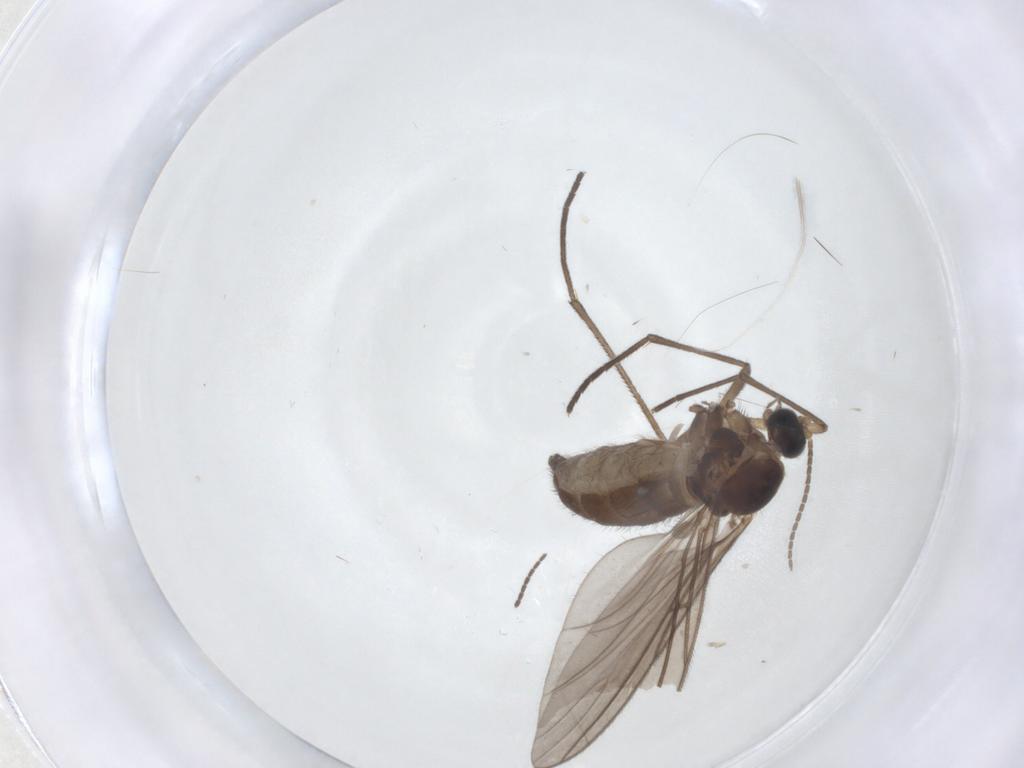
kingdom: Animalia
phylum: Arthropoda
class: Insecta
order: Diptera
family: Sciaridae
